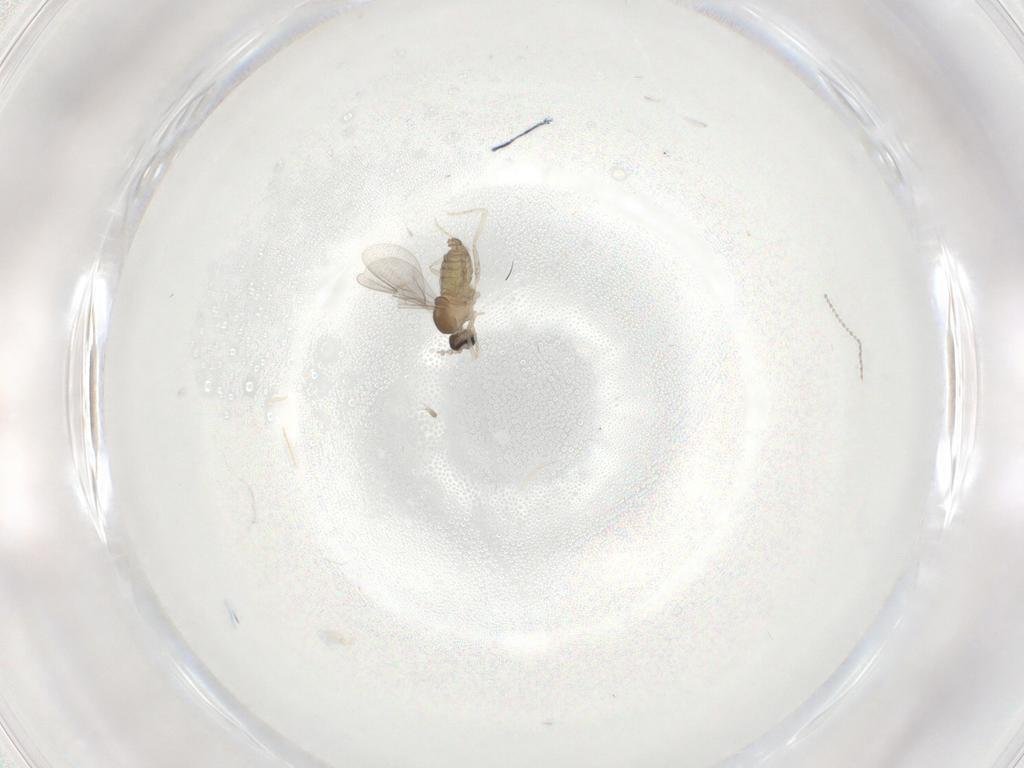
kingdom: Animalia
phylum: Arthropoda
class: Insecta
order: Diptera
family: Cecidomyiidae
